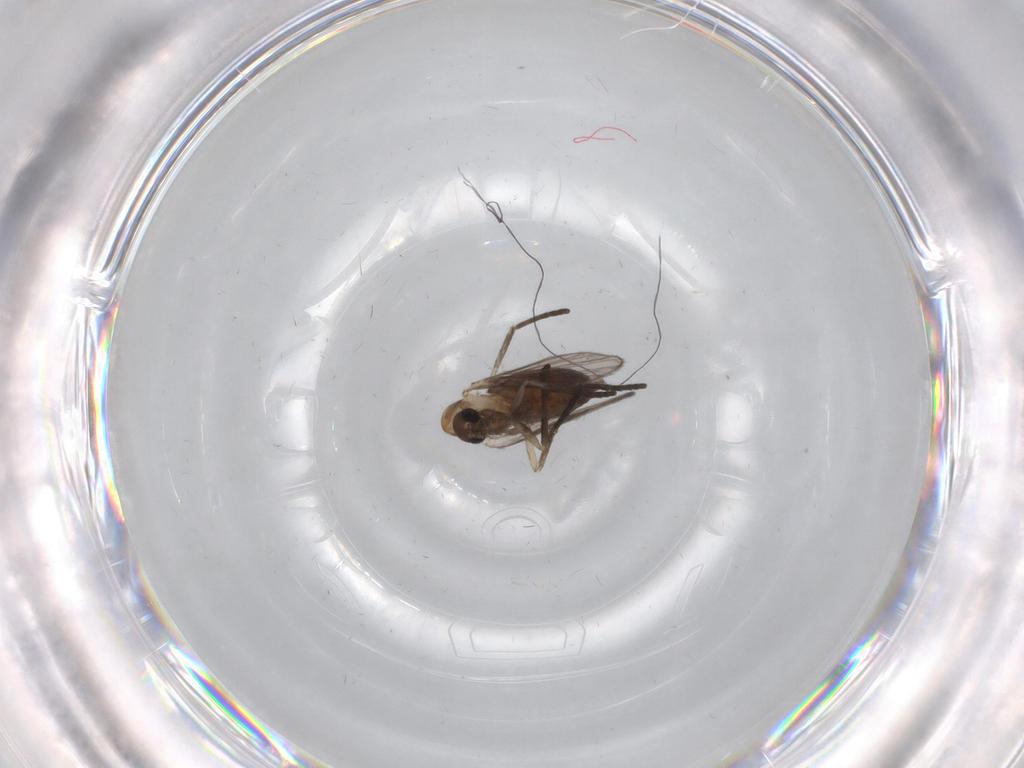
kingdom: Animalia
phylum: Arthropoda
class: Insecta
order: Diptera
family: Psychodidae
